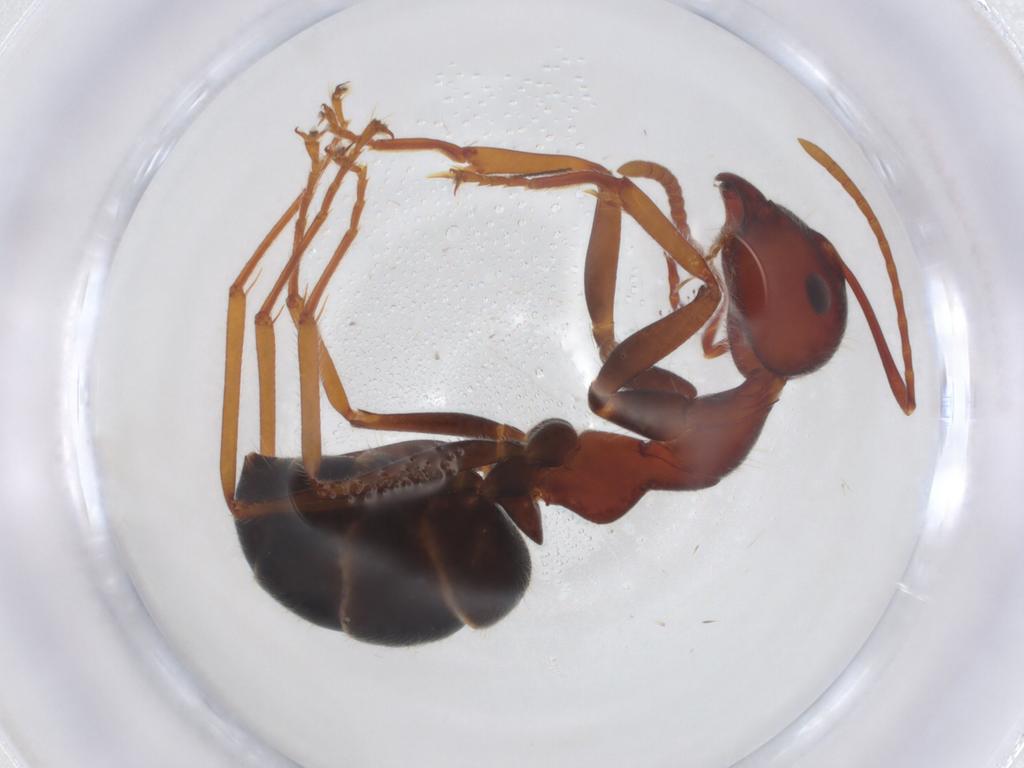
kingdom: Animalia
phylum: Arthropoda
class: Insecta
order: Hymenoptera
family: Formicidae
